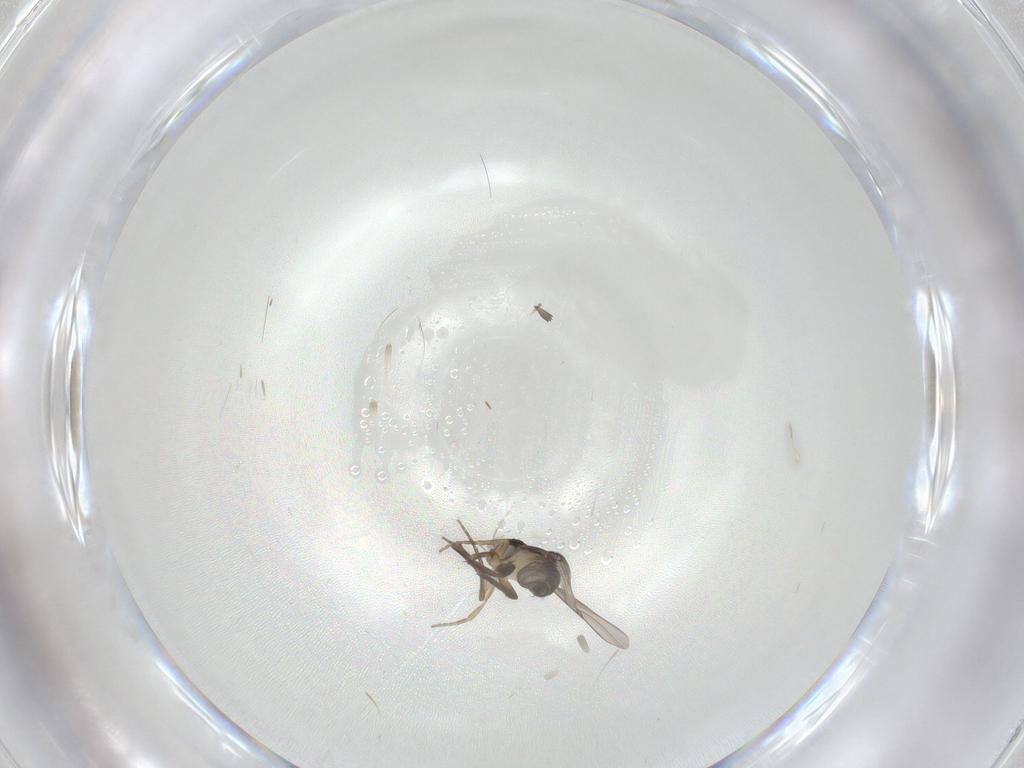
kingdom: Animalia
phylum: Arthropoda
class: Insecta
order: Diptera
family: Phoridae
